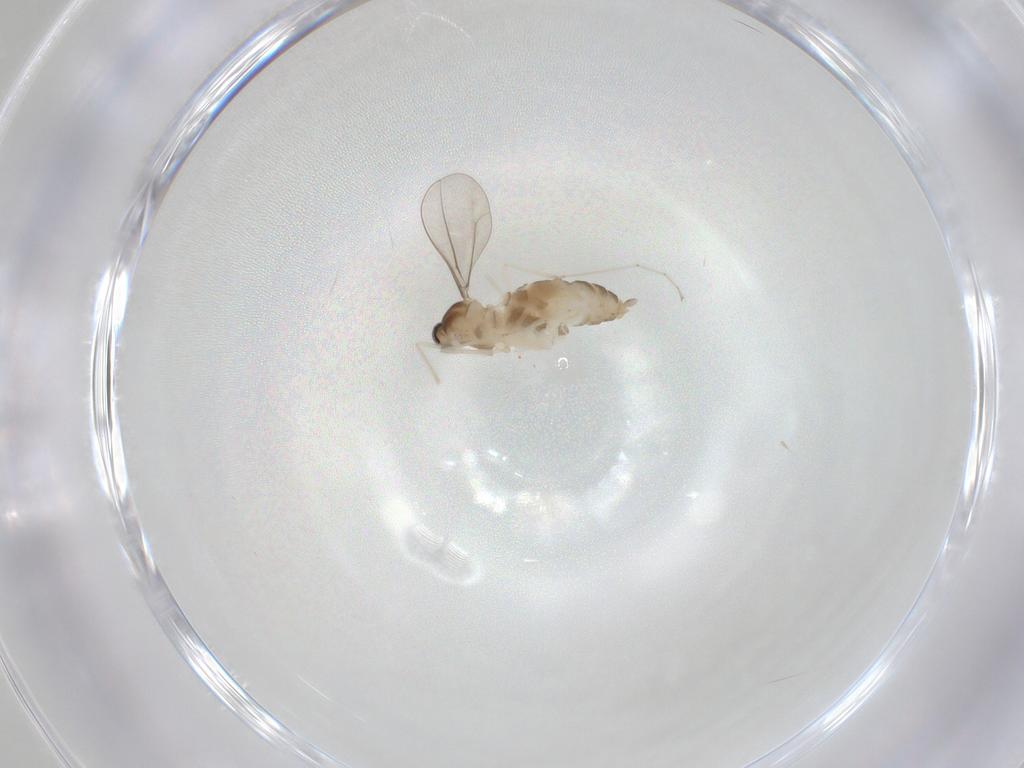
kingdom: Animalia
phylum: Arthropoda
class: Insecta
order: Diptera
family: Cecidomyiidae
